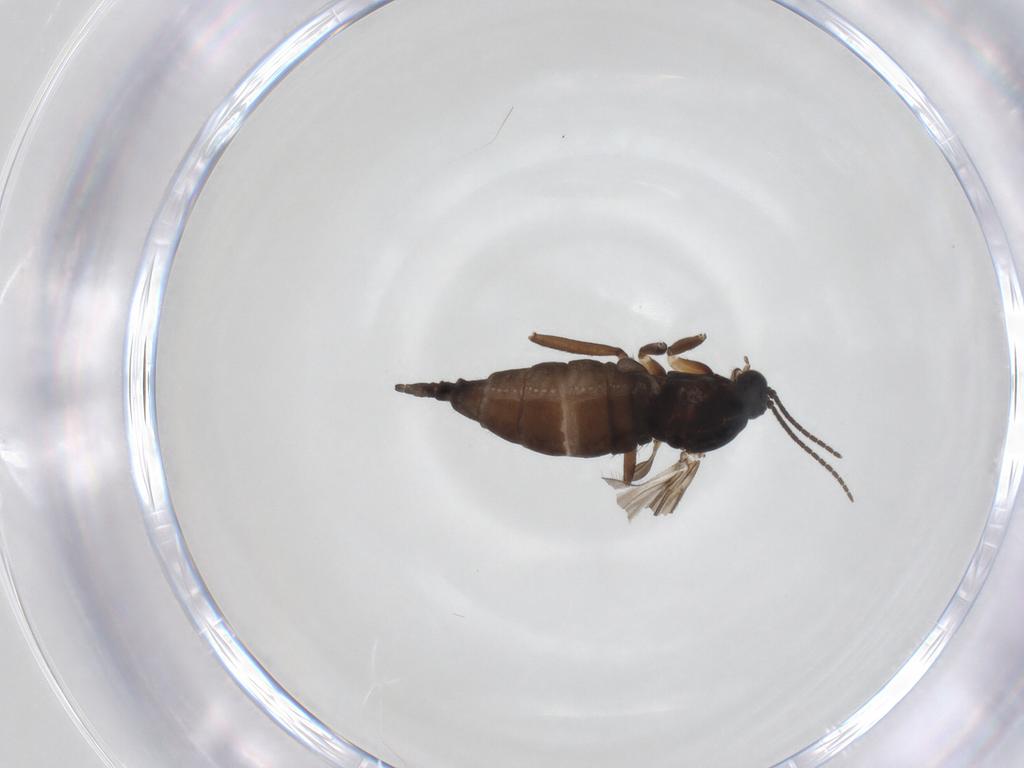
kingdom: Animalia
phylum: Arthropoda
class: Insecta
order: Diptera
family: Sciaridae
